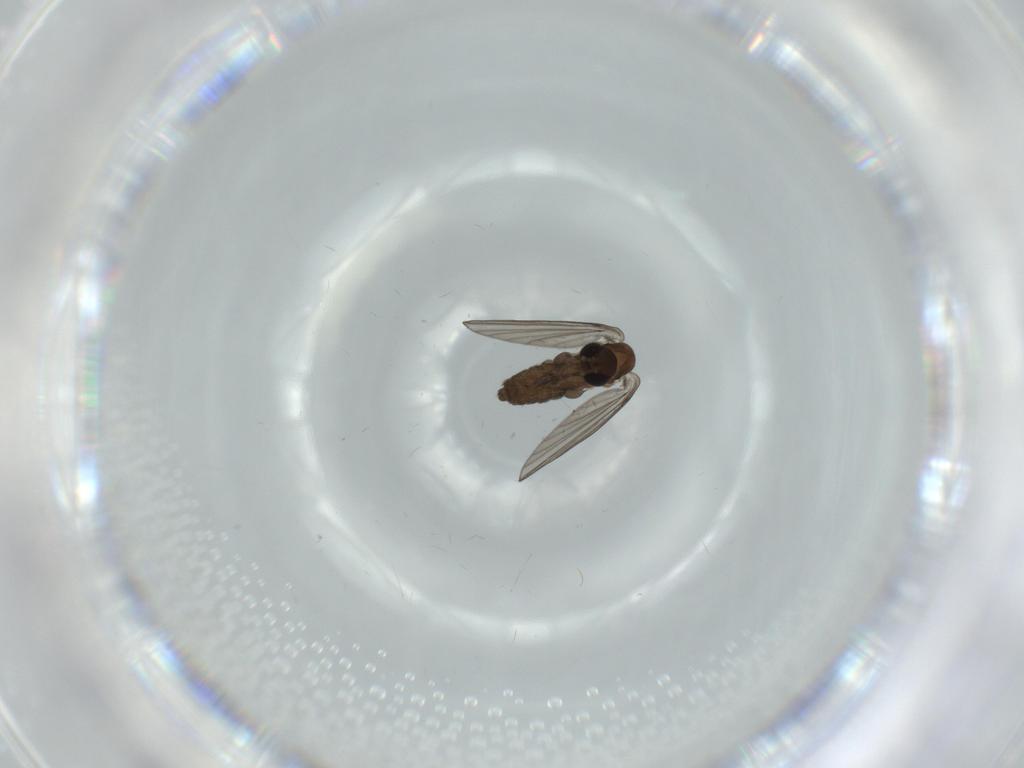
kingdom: Animalia
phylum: Arthropoda
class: Insecta
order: Diptera
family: Psychodidae
